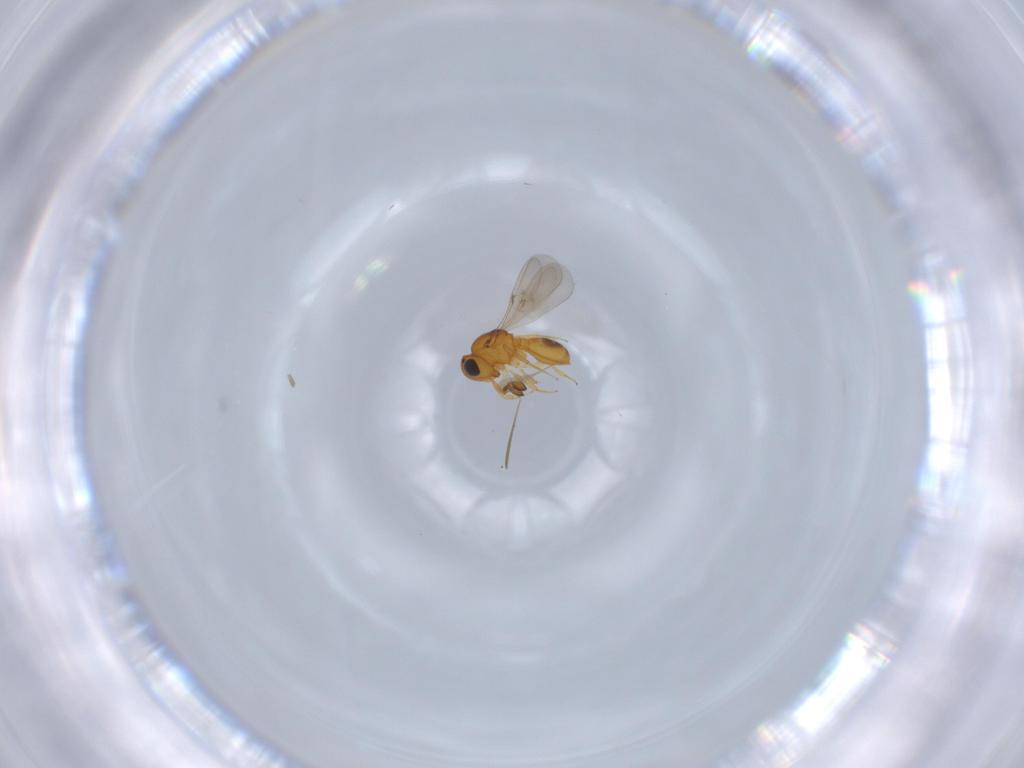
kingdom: Animalia
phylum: Arthropoda
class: Insecta
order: Hymenoptera
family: Scelionidae
